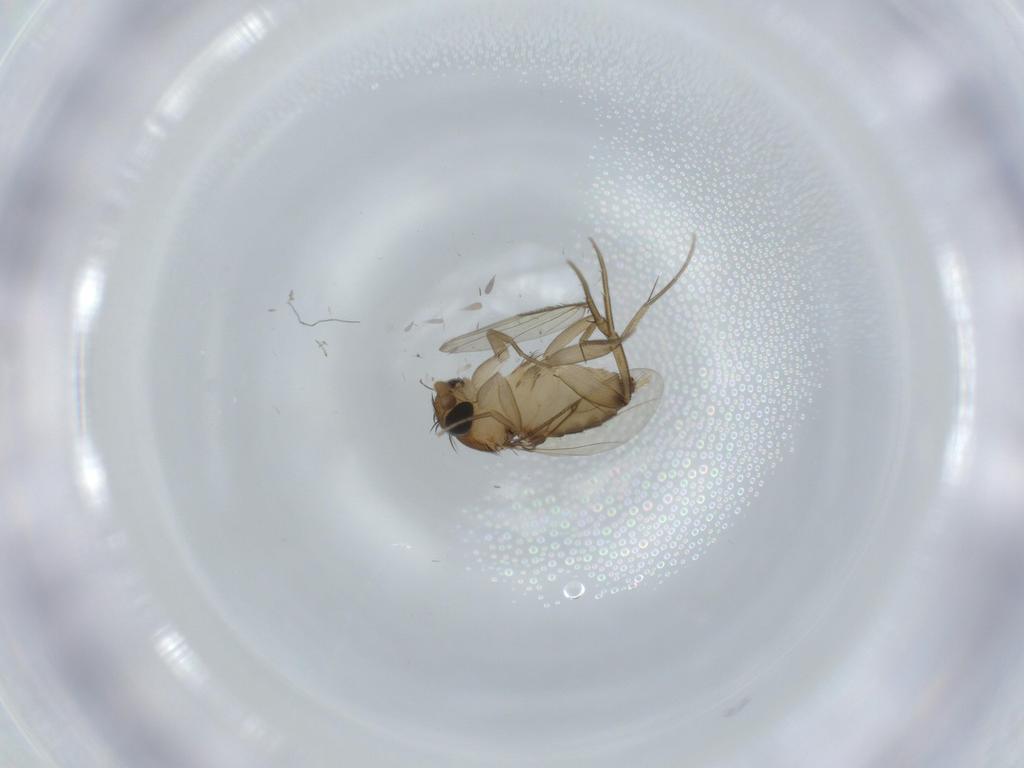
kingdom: Animalia
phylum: Arthropoda
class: Insecta
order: Diptera
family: Phoridae
